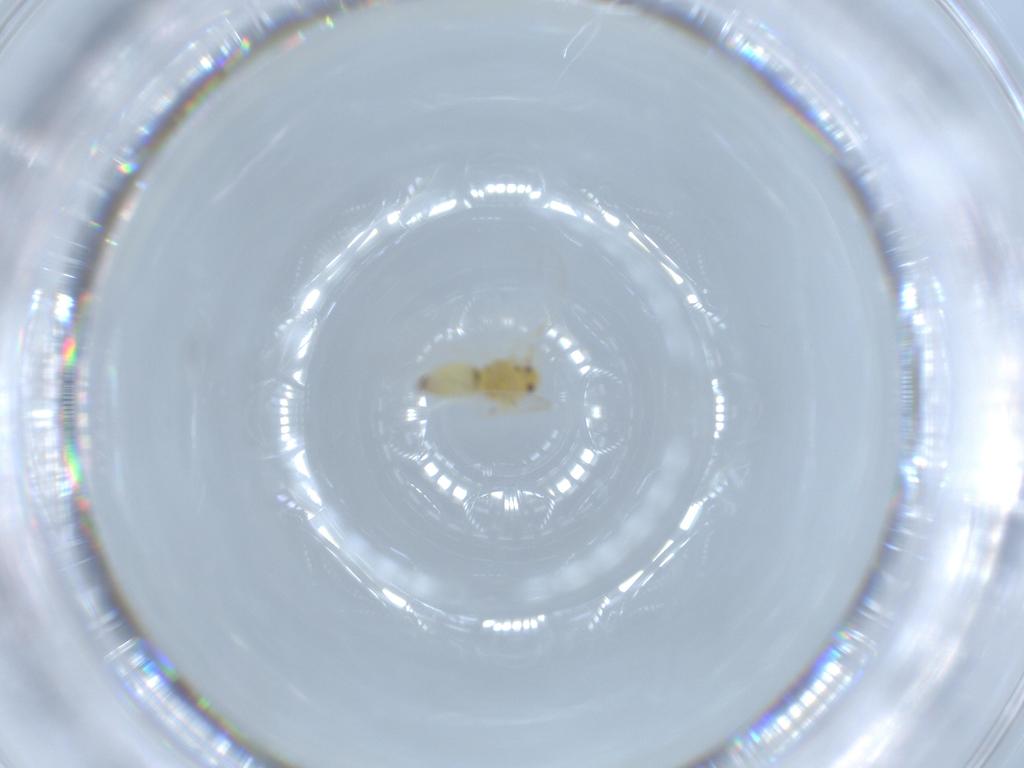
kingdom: Animalia
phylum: Arthropoda
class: Insecta
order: Hemiptera
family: Aleyrodidae
